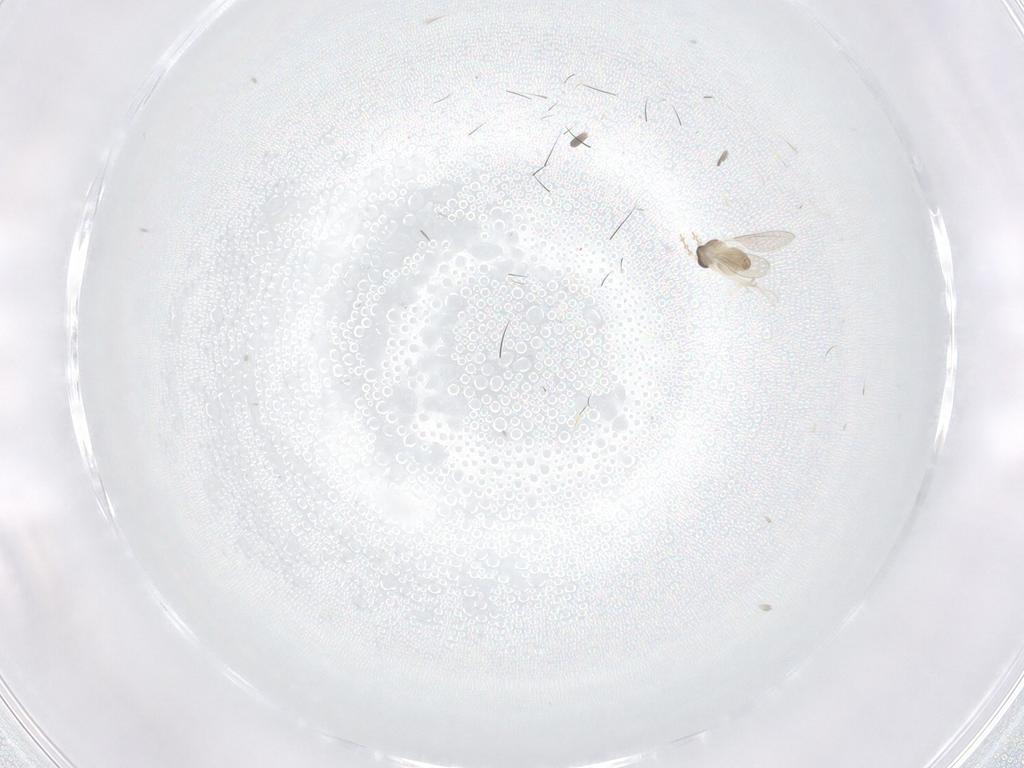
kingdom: Animalia
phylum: Arthropoda
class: Insecta
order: Diptera
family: Cecidomyiidae
